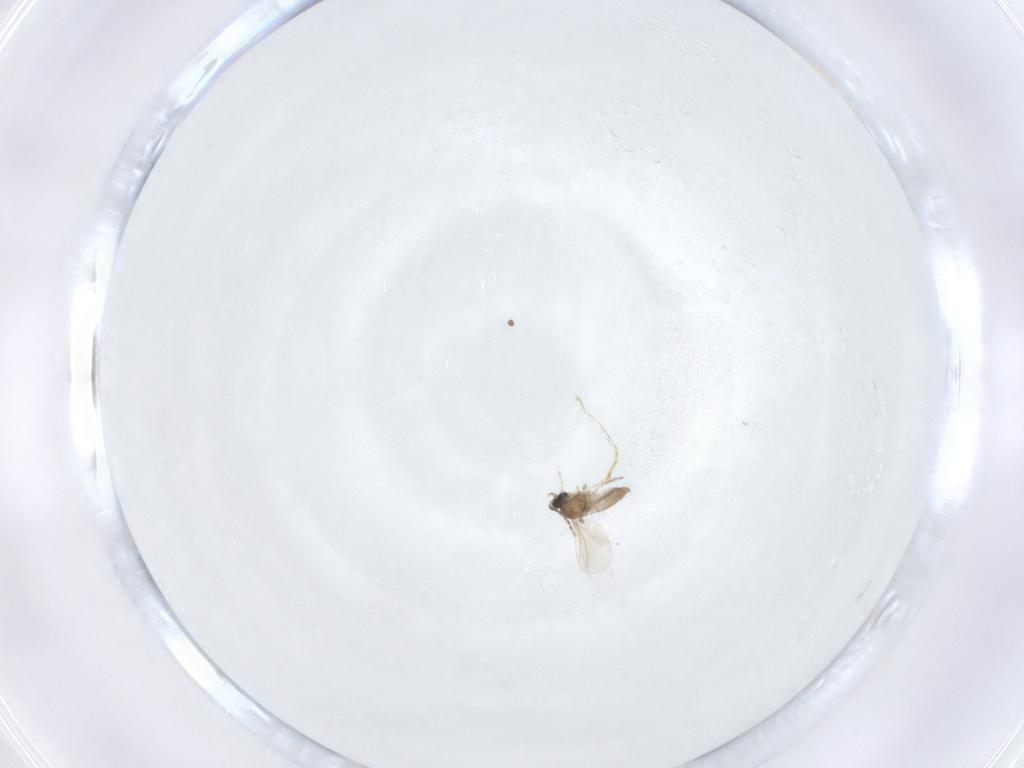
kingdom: Animalia
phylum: Arthropoda
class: Insecta
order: Diptera
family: Chironomidae
